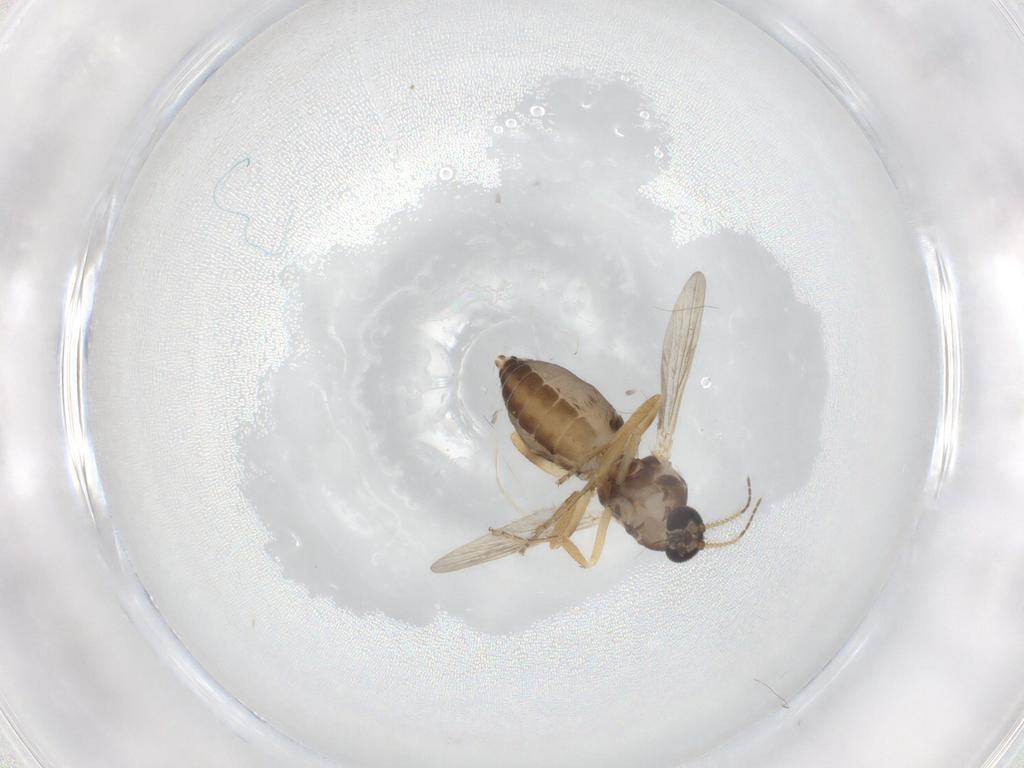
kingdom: Animalia
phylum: Arthropoda
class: Insecta
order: Diptera
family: Ceratopogonidae
